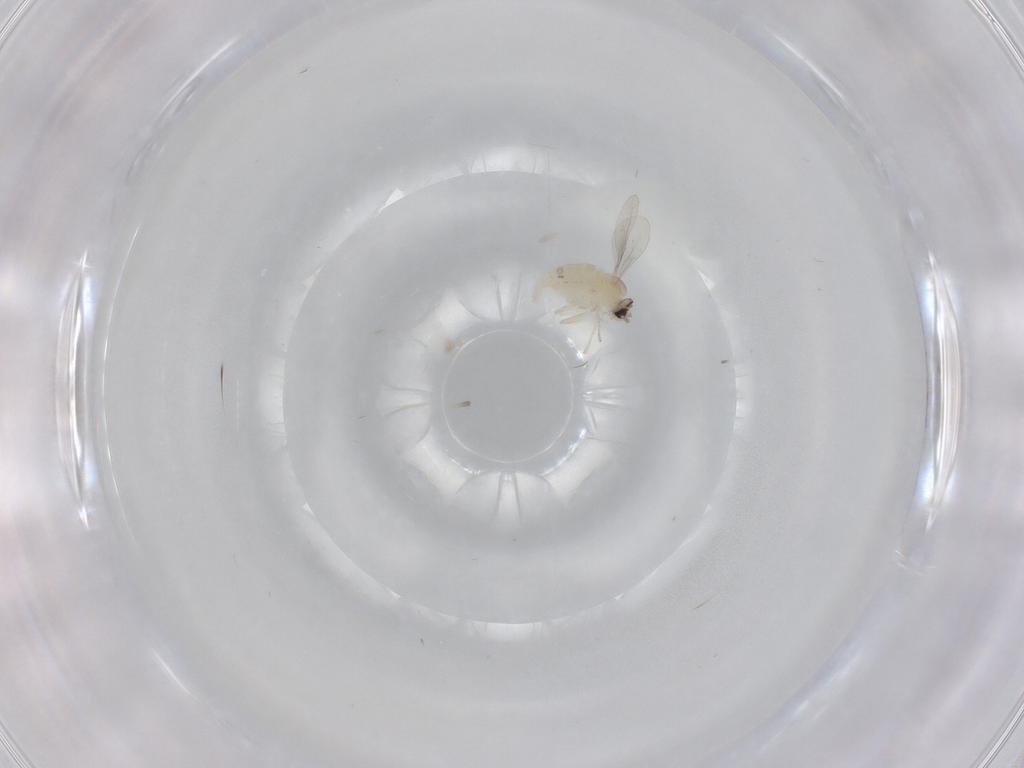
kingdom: Animalia
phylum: Arthropoda
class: Insecta
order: Diptera
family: Cecidomyiidae
